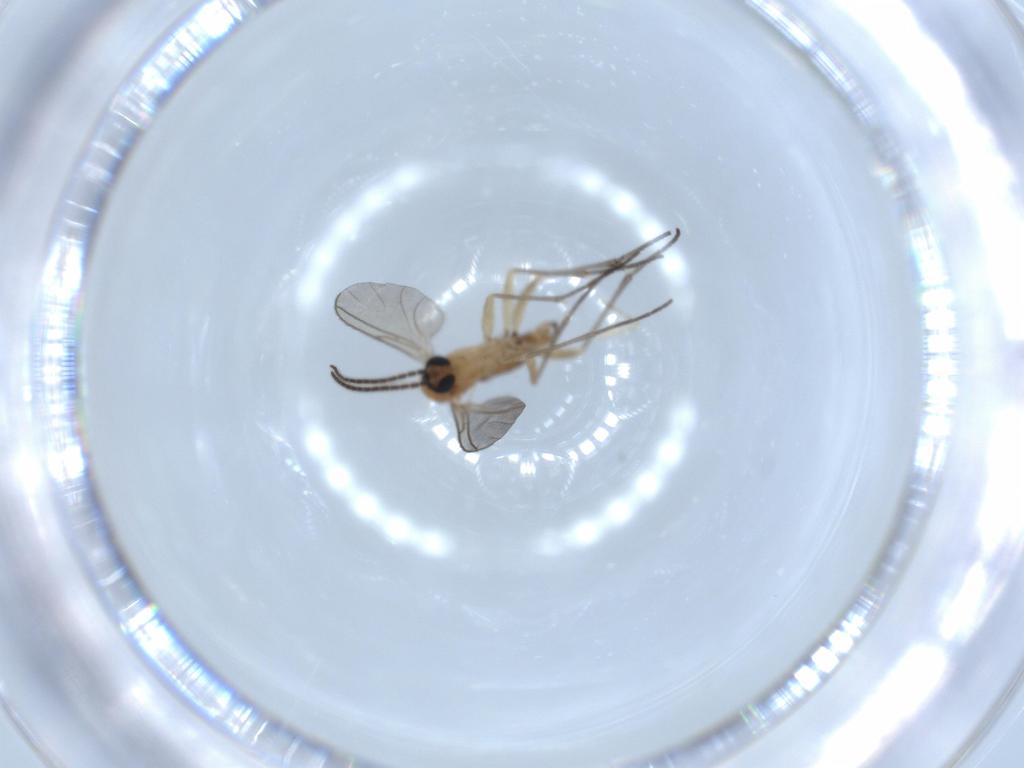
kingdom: Animalia
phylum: Arthropoda
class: Insecta
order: Diptera
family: Sciaridae
